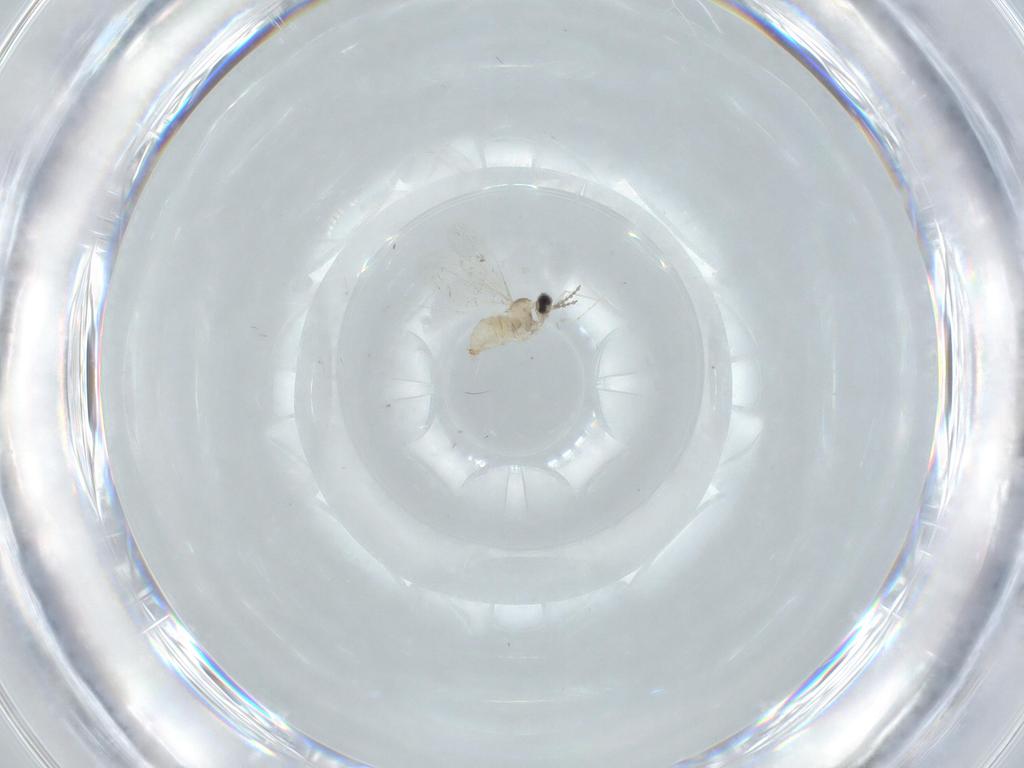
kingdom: Animalia
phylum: Arthropoda
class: Insecta
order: Diptera
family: Cecidomyiidae
